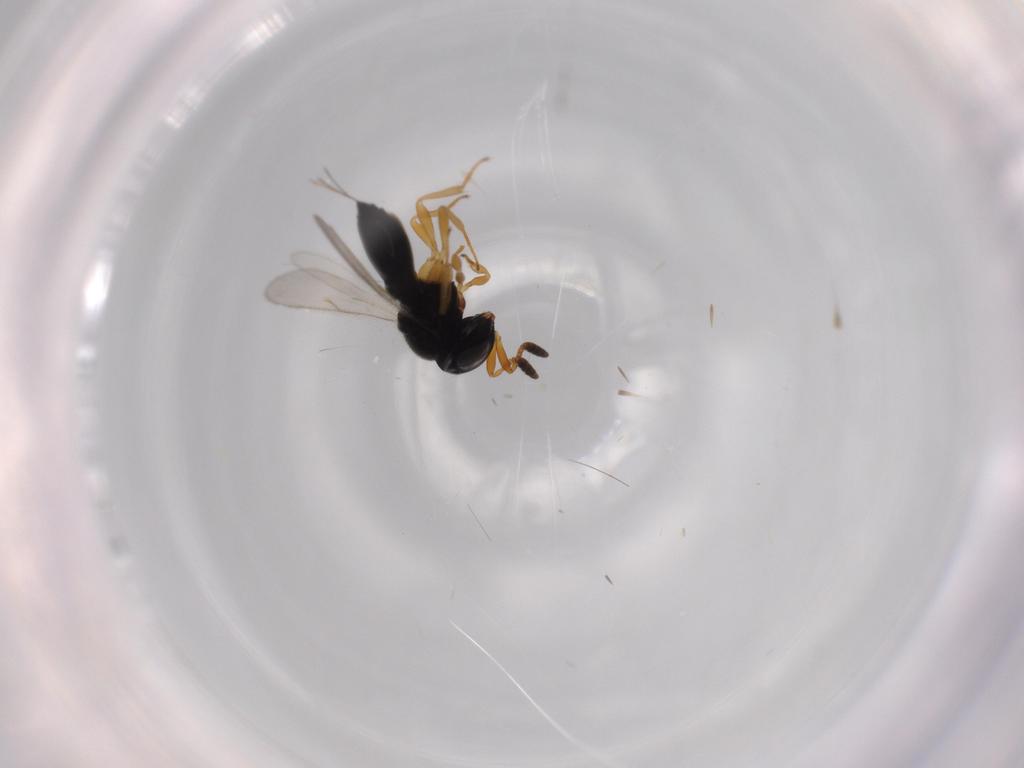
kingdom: Animalia
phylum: Arthropoda
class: Insecta
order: Hymenoptera
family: Scelionidae
